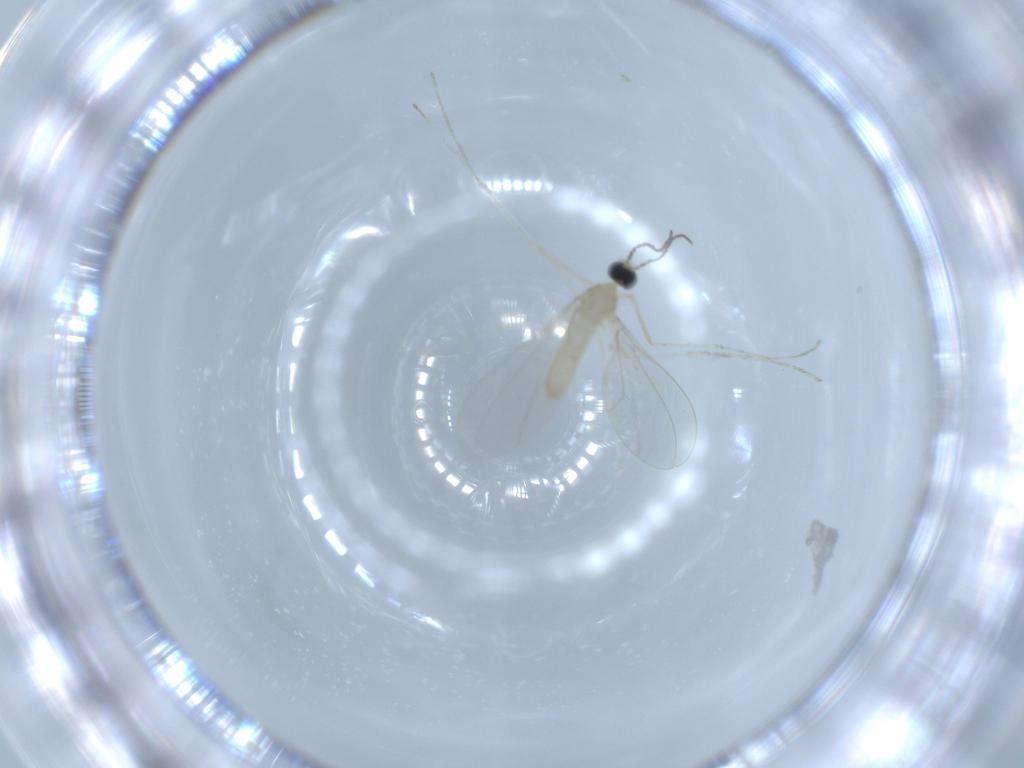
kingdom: Animalia
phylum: Arthropoda
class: Insecta
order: Diptera
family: Cecidomyiidae
